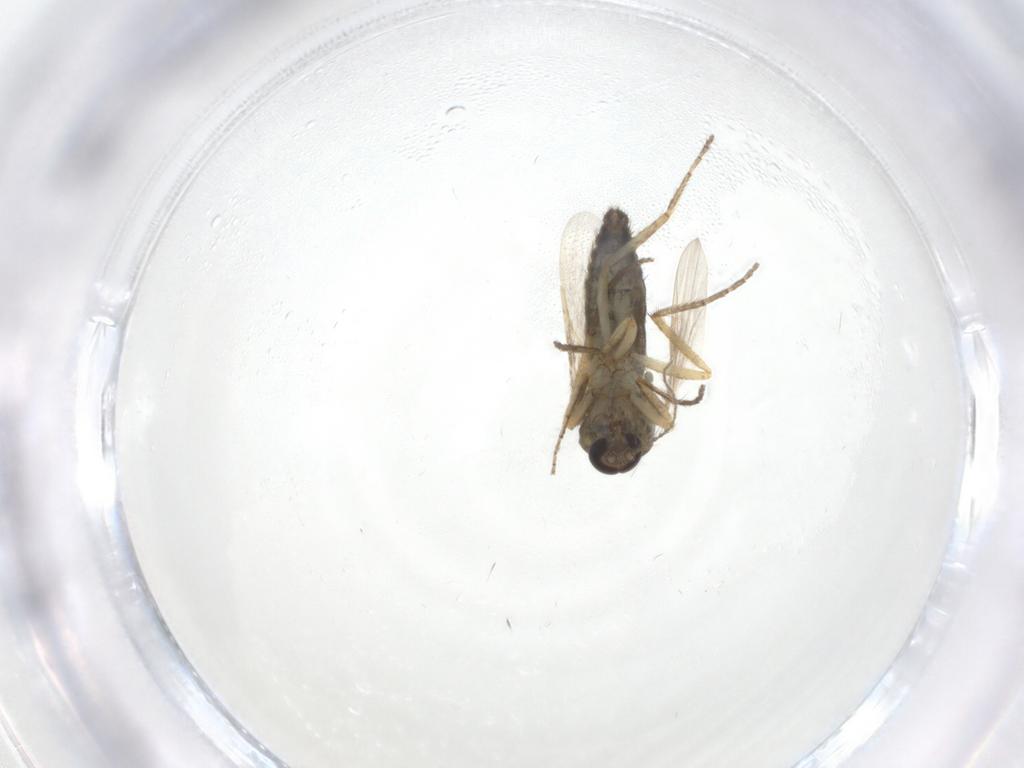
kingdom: Animalia
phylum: Arthropoda
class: Insecta
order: Diptera
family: Ceratopogonidae
